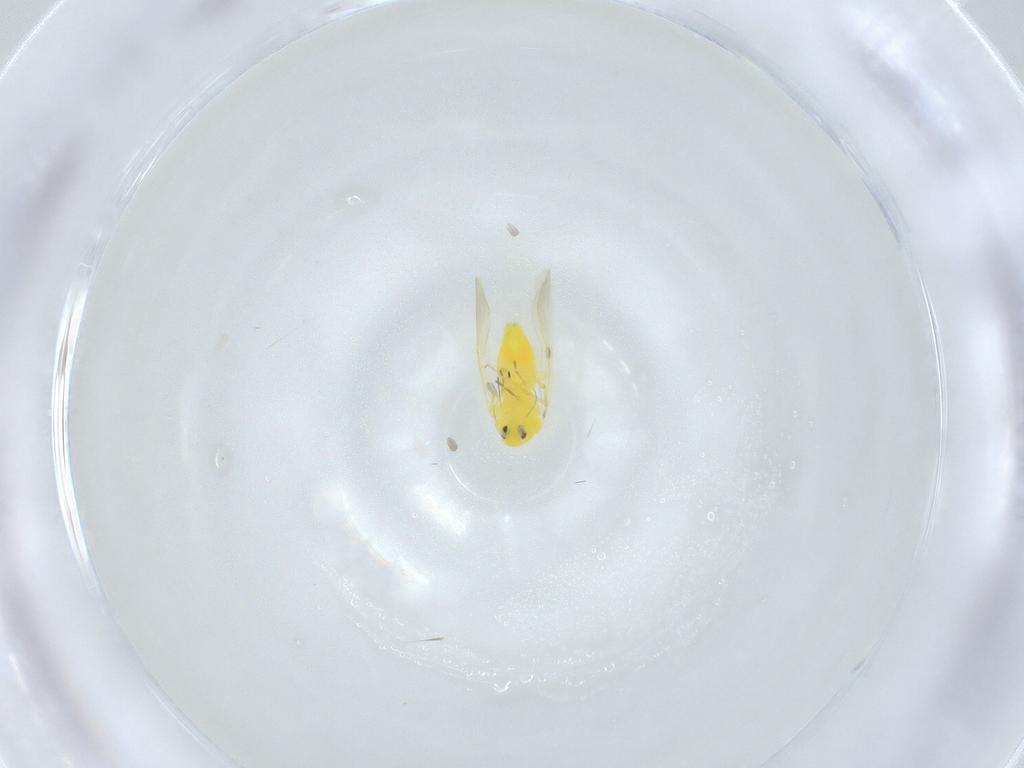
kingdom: Animalia
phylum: Arthropoda
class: Insecta
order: Hemiptera
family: Aleyrodidae
